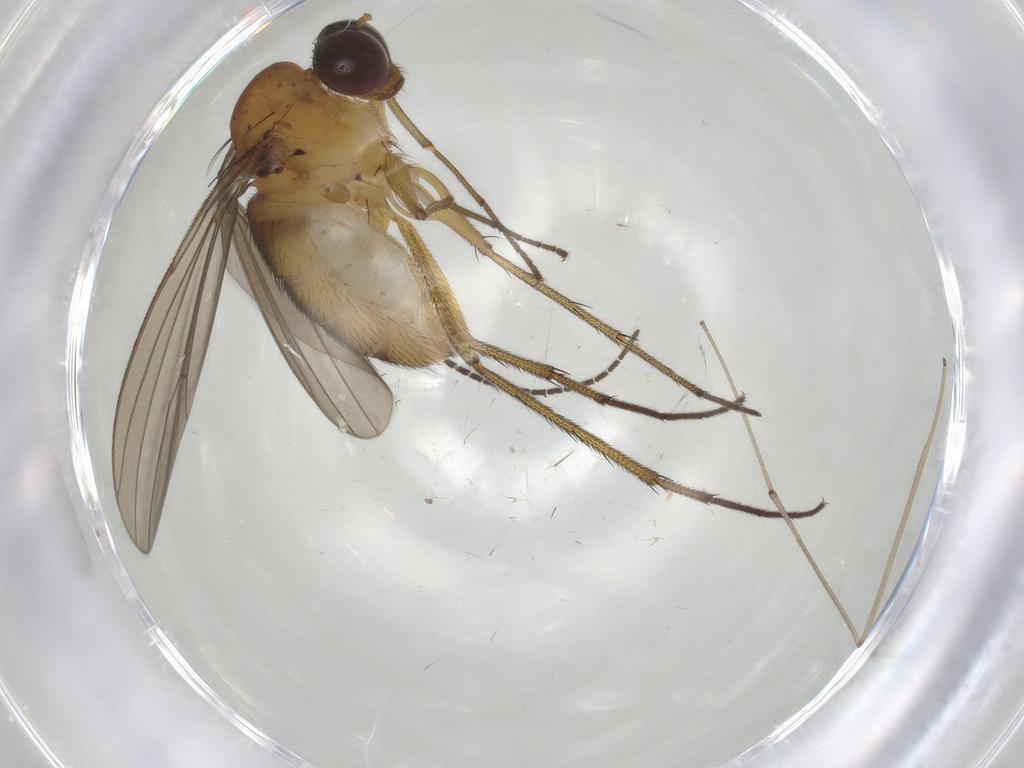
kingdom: Animalia
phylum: Arthropoda
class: Insecta
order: Diptera
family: Sciaridae
